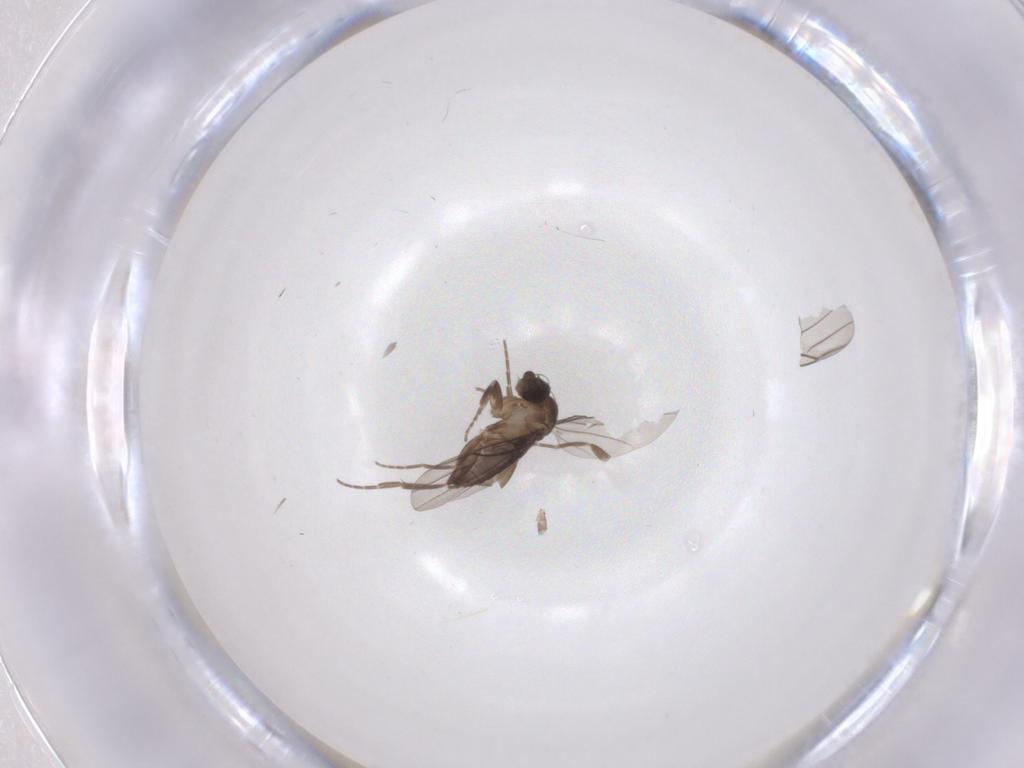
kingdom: Animalia
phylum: Arthropoda
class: Insecta
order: Diptera
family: Phoridae
